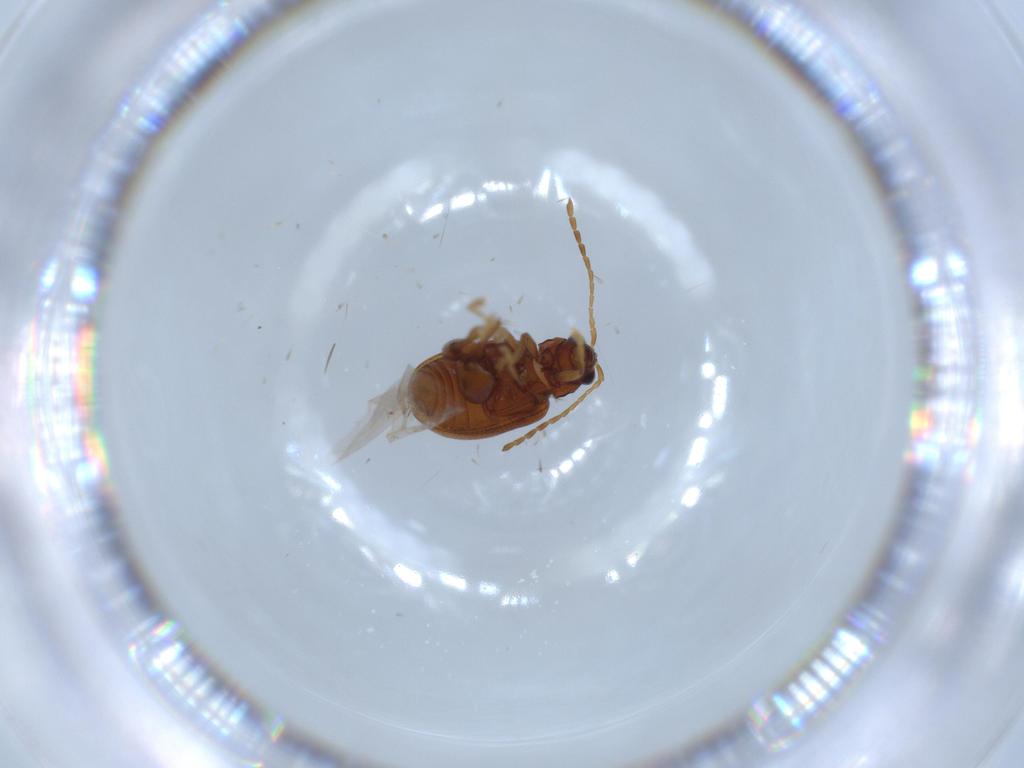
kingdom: Animalia
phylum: Arthropoda
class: Insecta
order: Coleoptera
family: Chrysomelidae
